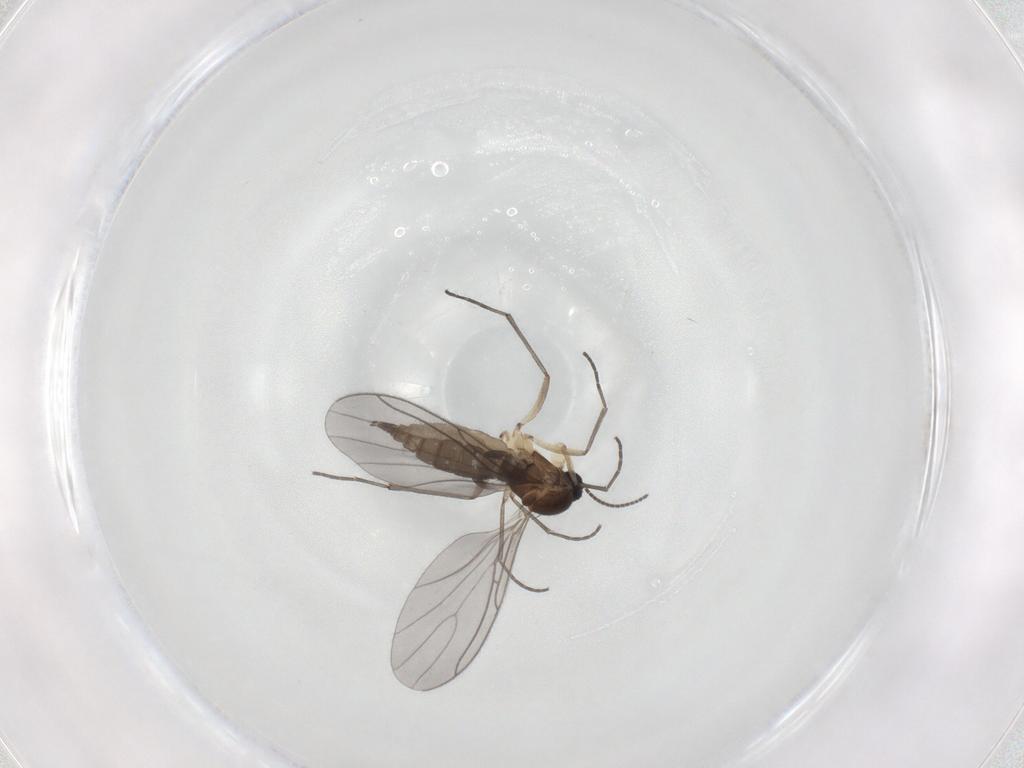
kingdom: Animalia
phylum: Arthropoda
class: Insecta
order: Diptera
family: Sciaridae
